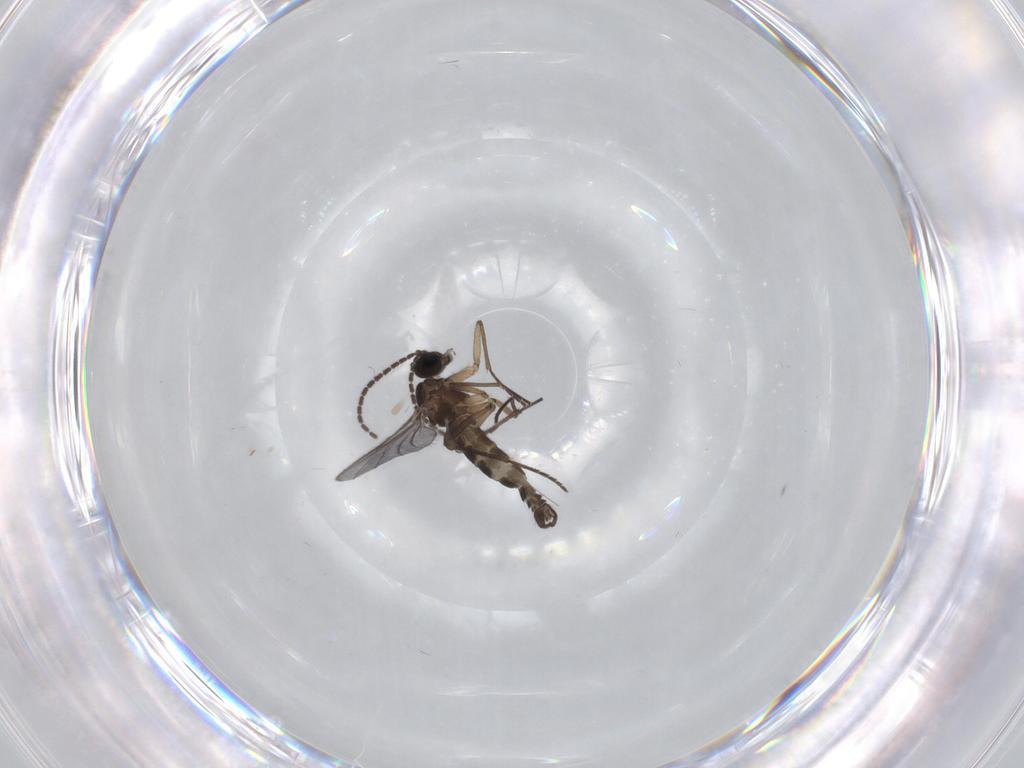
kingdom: Animalia
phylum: Arthropoda
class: Insecta
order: Diptera
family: Sciaridae
